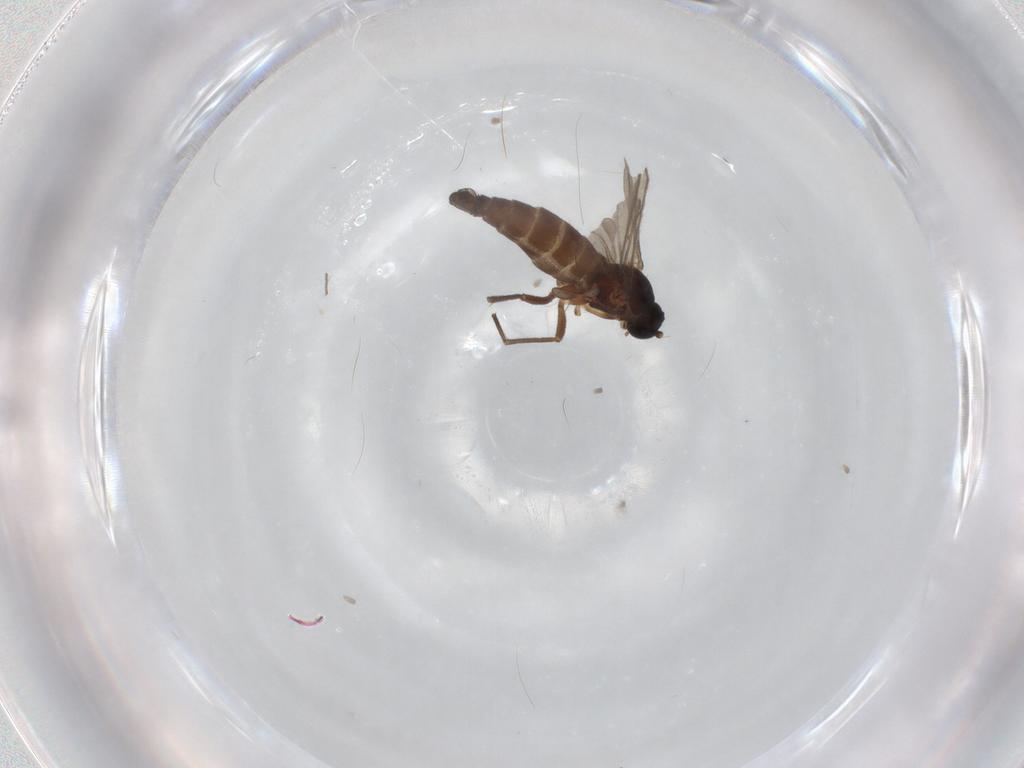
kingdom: Animalia
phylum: Arthropoda
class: Insecta
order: Diptera
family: Sciaridae
